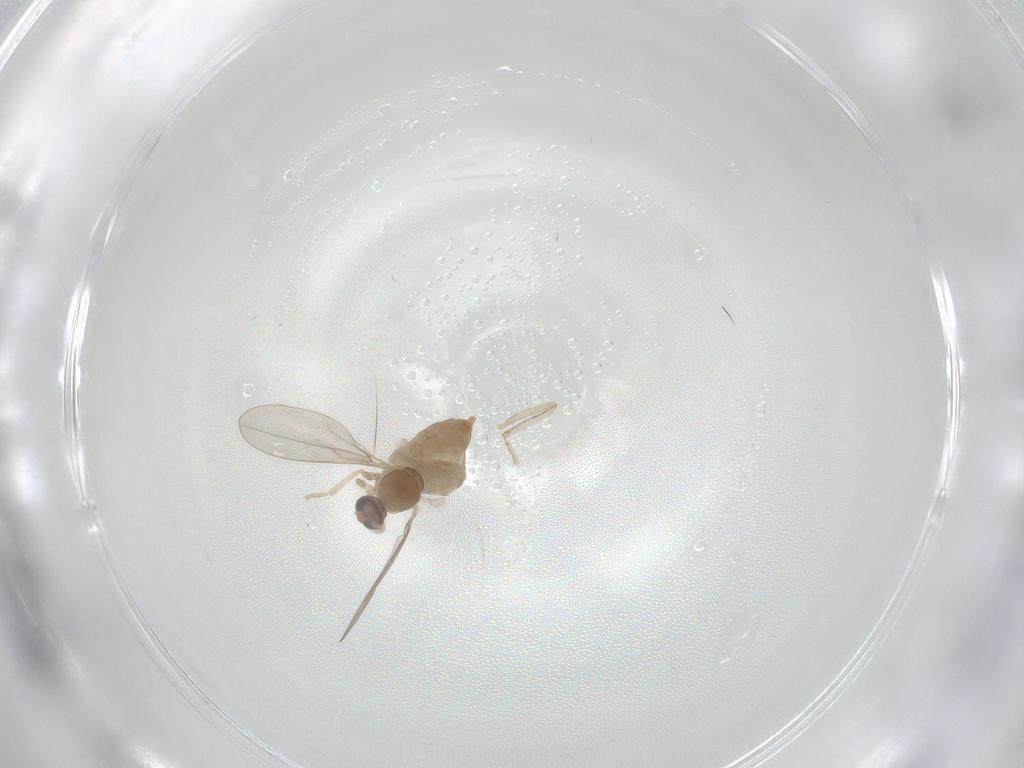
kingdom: Animalia
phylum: Arthropoda
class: Insecta
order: Diptera
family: Cecidomyiidae
